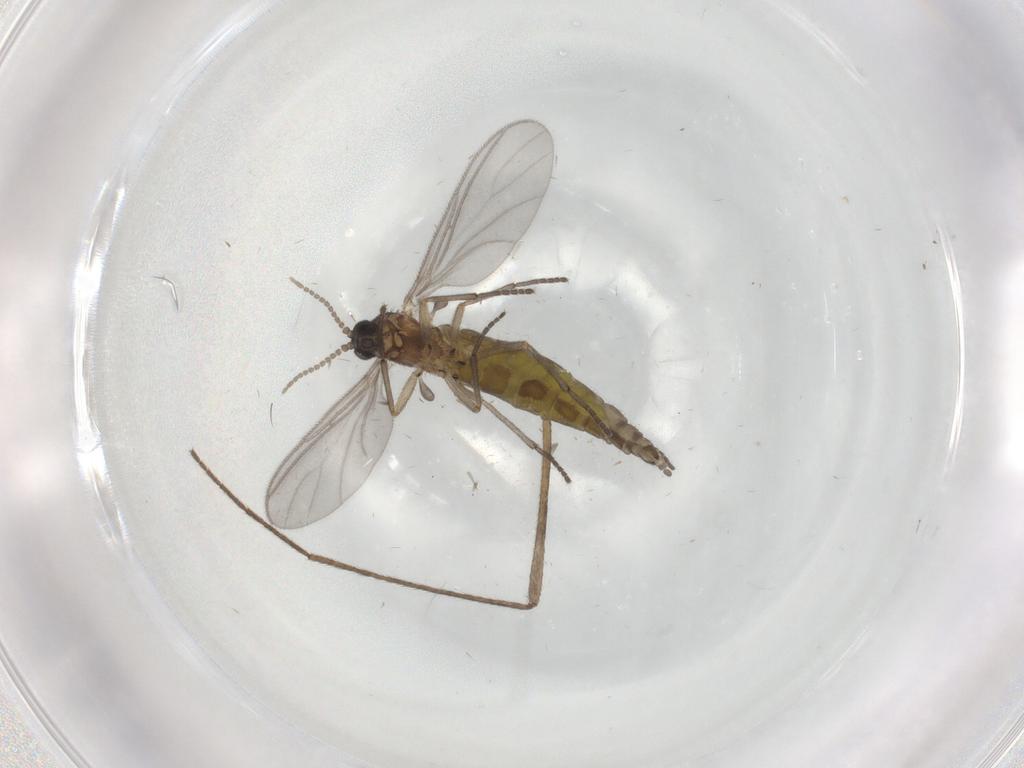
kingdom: Animalia
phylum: Arthropoda
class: Insecta
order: Diptera
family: Sciaridae
